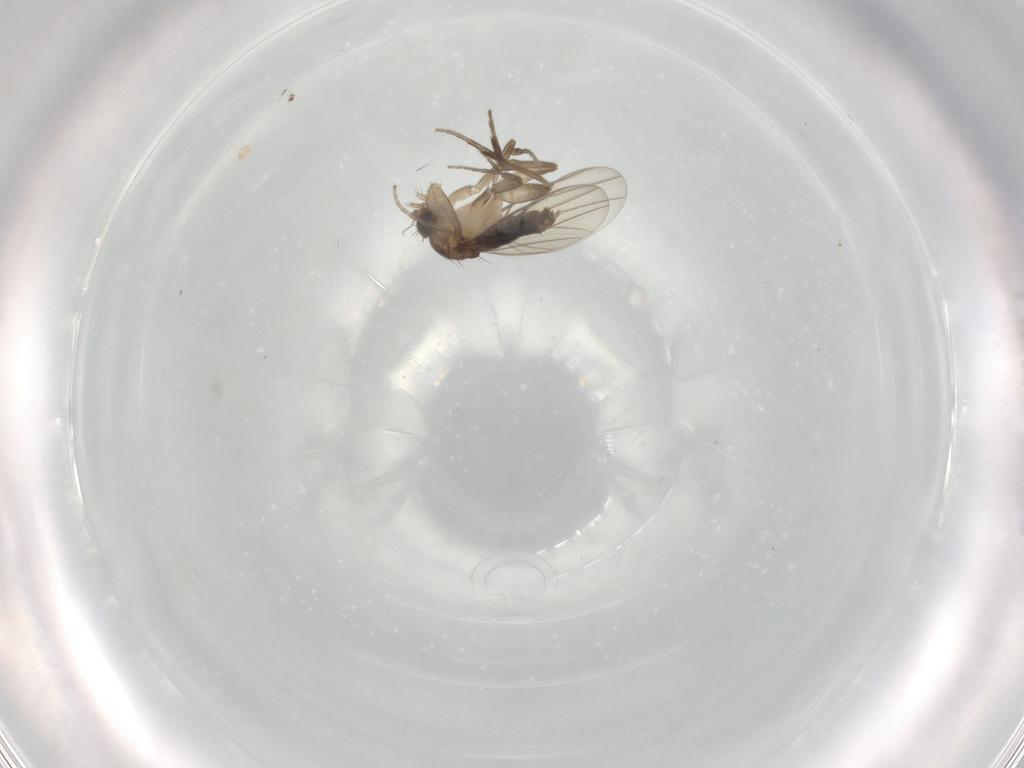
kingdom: Animalia
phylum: Arthropoda
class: Insecta
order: Diptera
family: Phoridae
